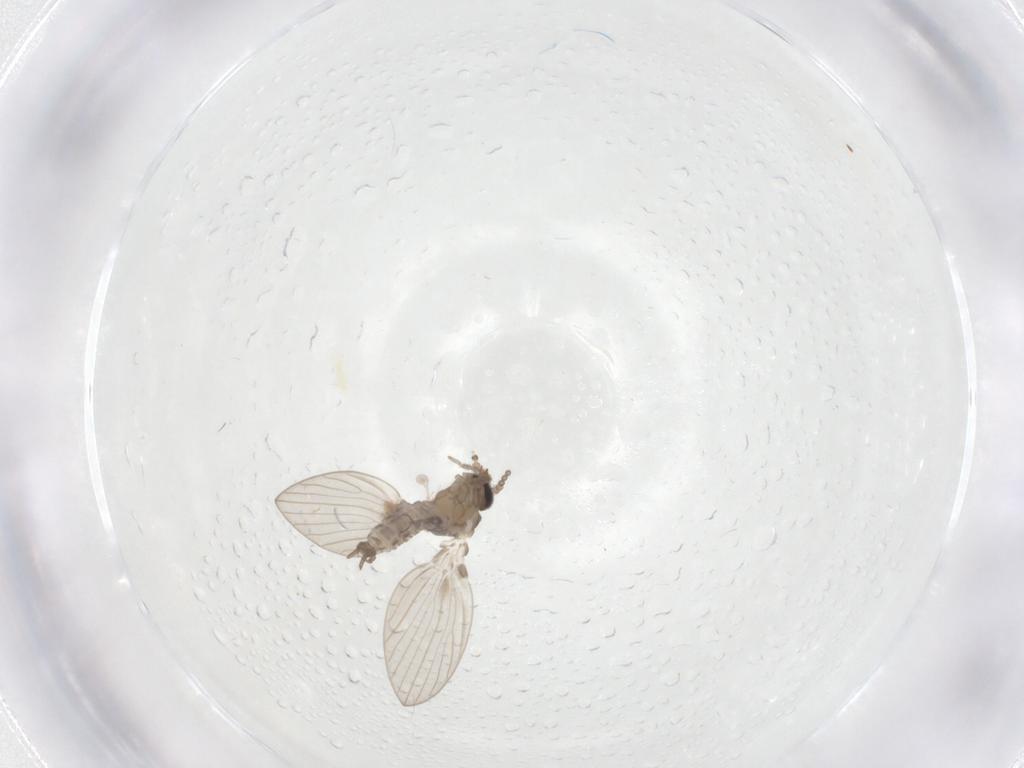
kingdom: Animalia
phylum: Arthropoda
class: Insecta
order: Diptera
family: Psychodidae
